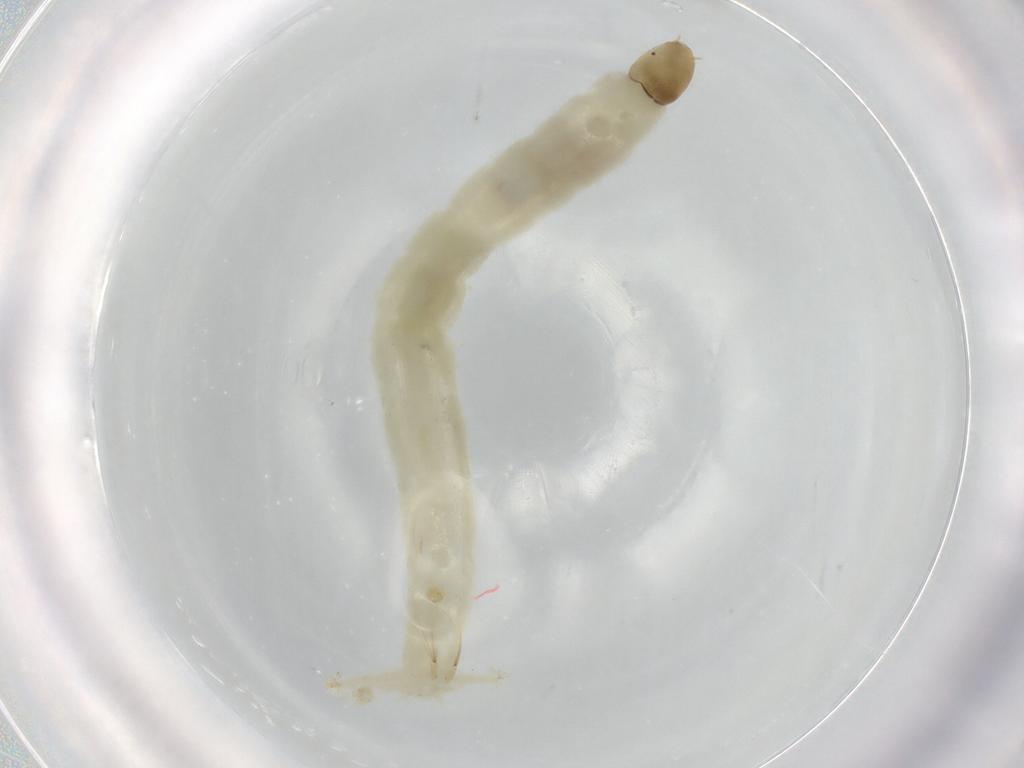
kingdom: Animalia
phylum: Arthropoda
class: Insecta
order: Diptera
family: Chironomidae
